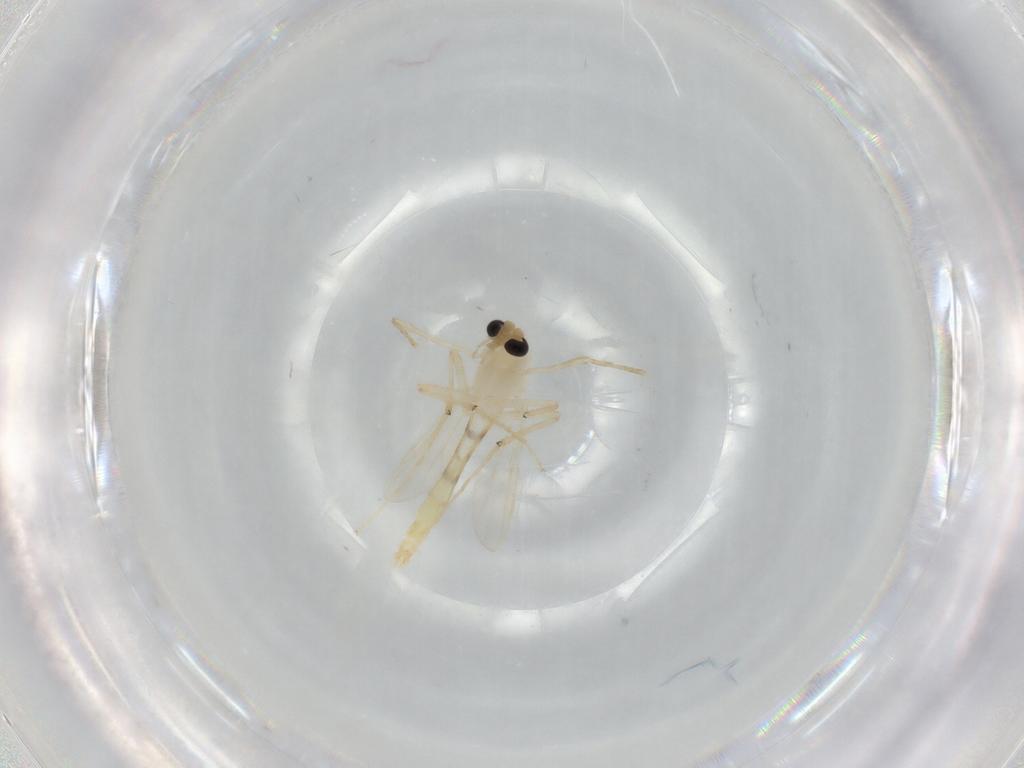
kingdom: Animalia
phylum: Arthropoda
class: Insecta
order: Diptera
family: Chironomidae
